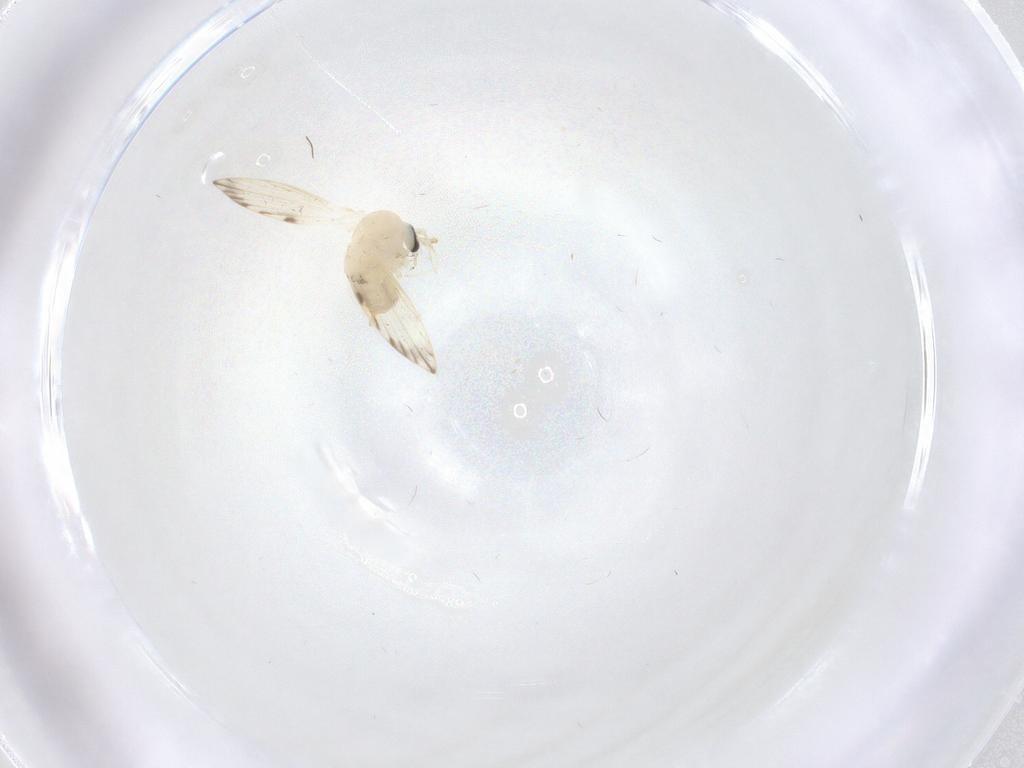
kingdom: Animalia
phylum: Arthropoda
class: Insecta
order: Diptera
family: Psychodidae
